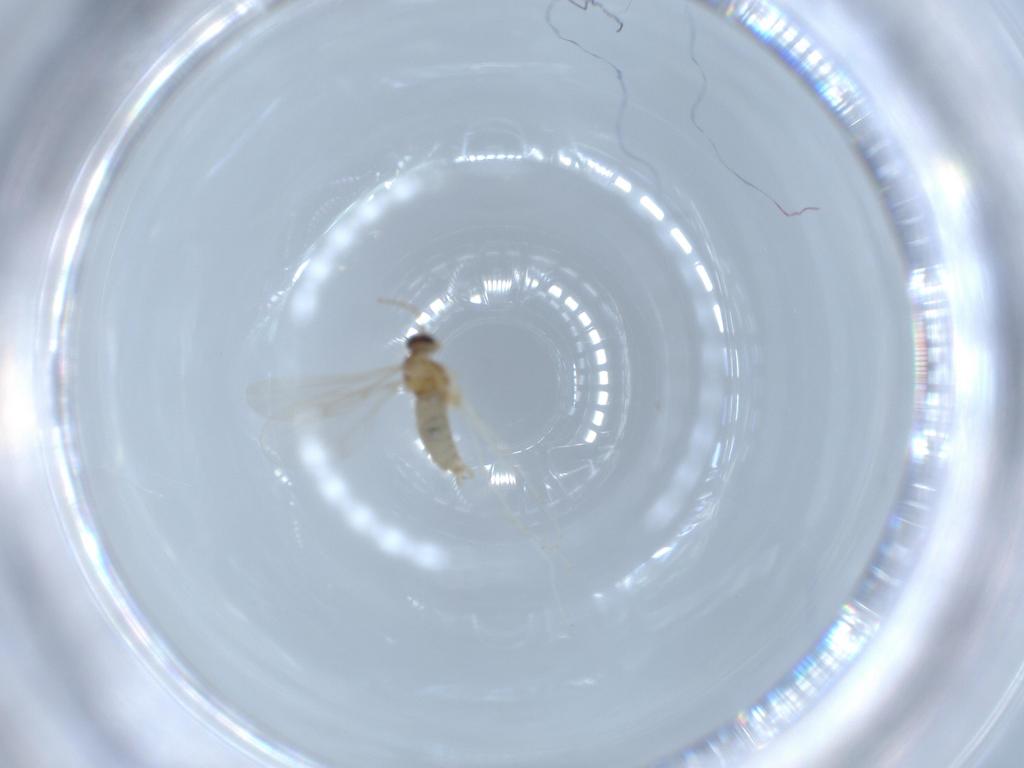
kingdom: Animalia
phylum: Arthropoda
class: Insecta
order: Diptera
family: Cecidomyiidae
